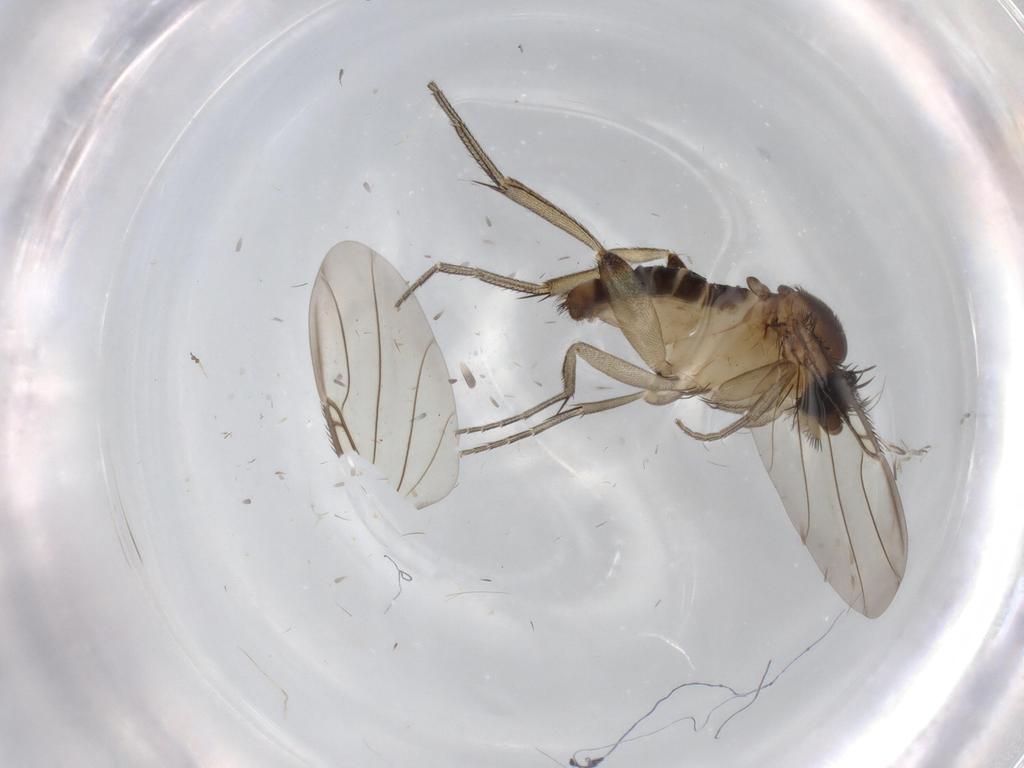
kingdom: Animalia
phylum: Arthropoda
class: Insecta
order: Diptera
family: Phoridae
